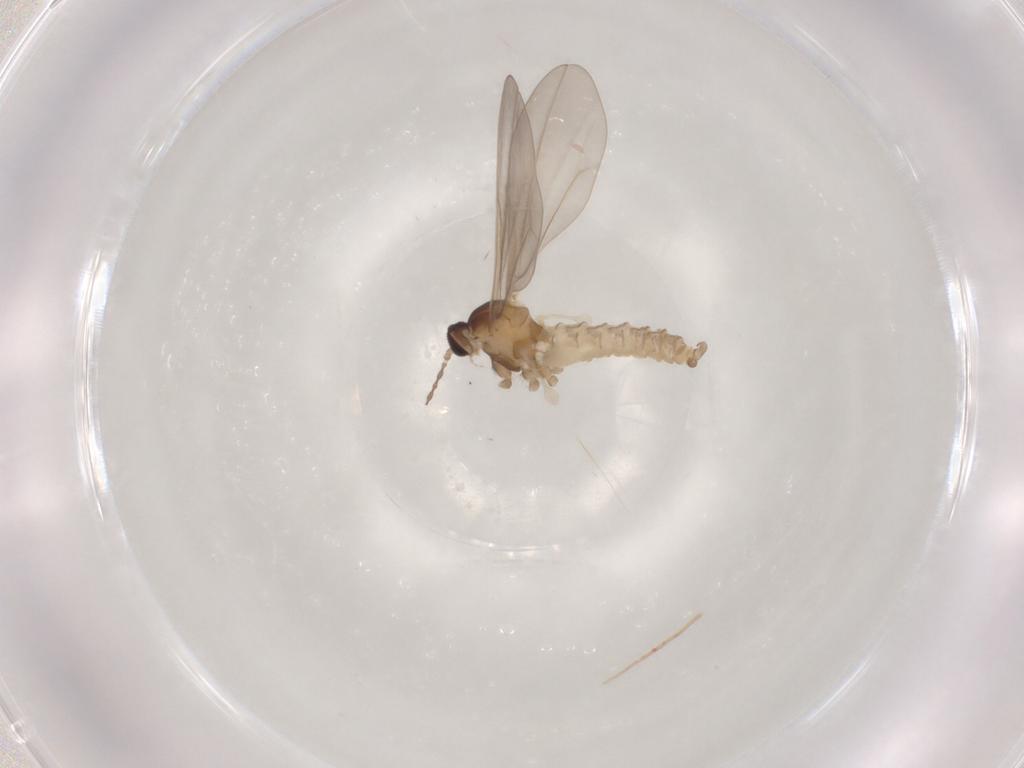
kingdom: Animalia
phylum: Arthropoda
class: Insecta
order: Diptera
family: Cecidomyiidae
